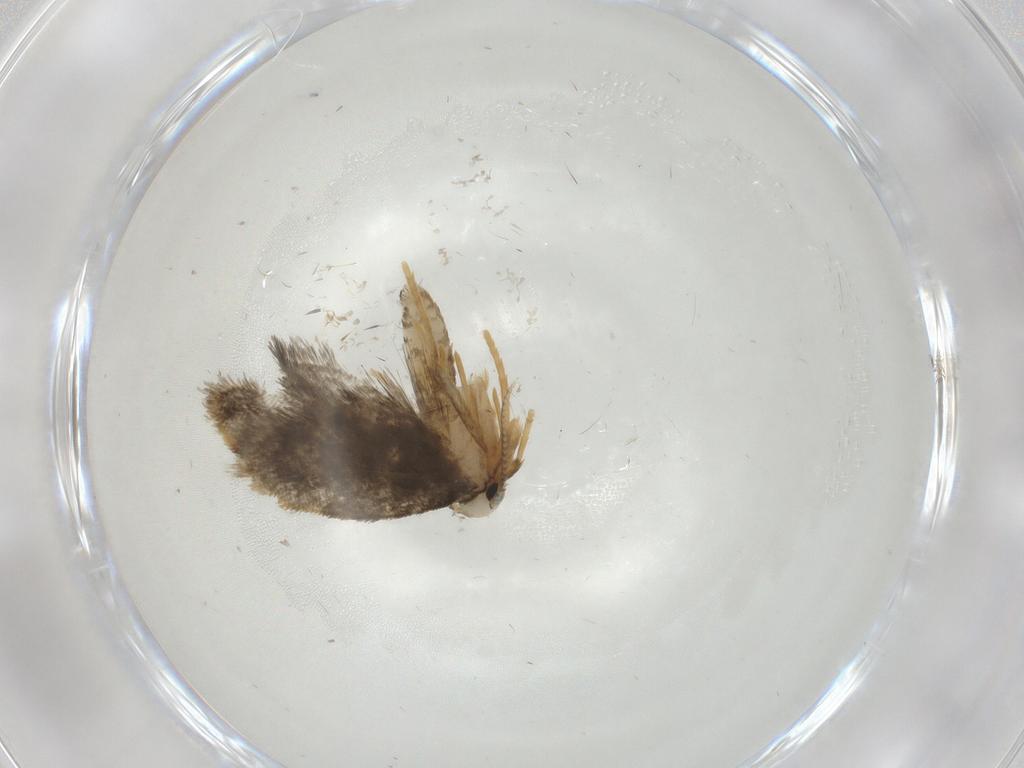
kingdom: Animalia
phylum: Arthropoda
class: Insecta
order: Lepidoptera
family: Psychidae
